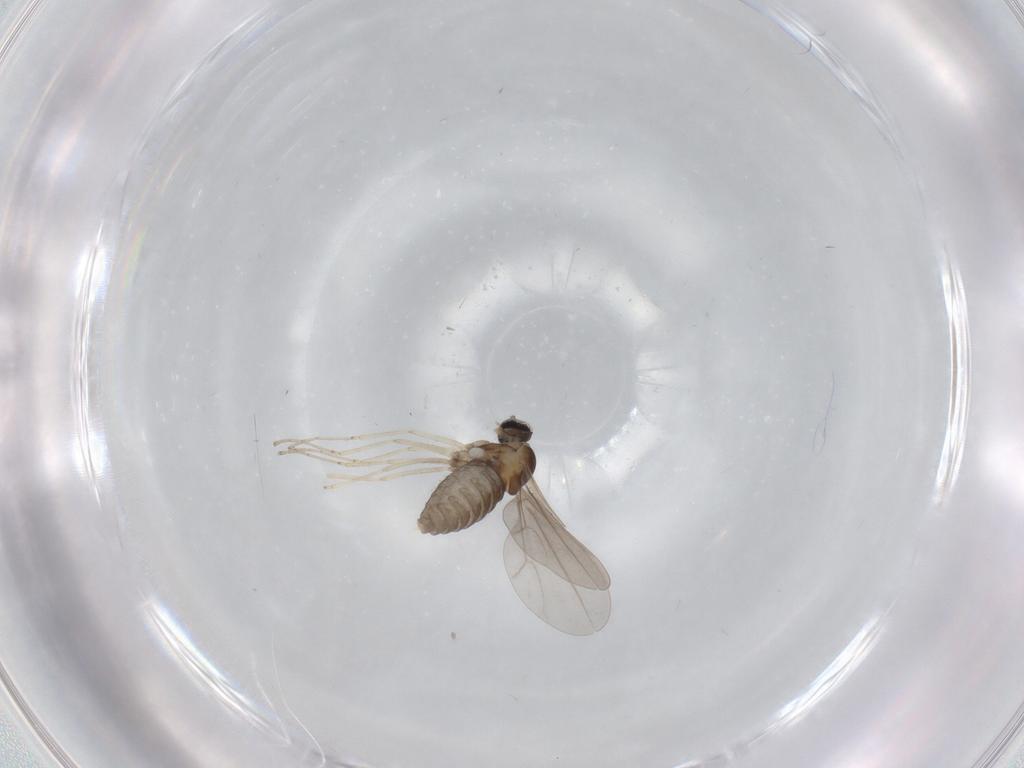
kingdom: Animalia
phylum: Arthropoda
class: Insecta
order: Diptera
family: Cecidomyiidae
